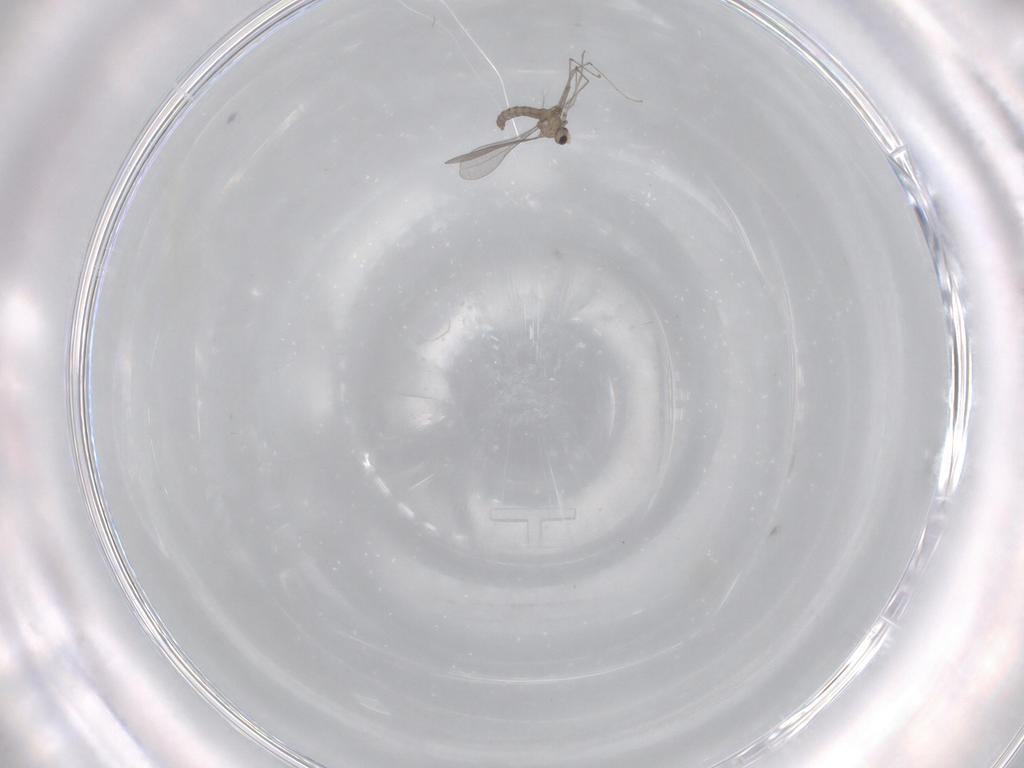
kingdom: Animalia
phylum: Arthropoda
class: Insecta
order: Diptera
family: Cecidomyiidae
